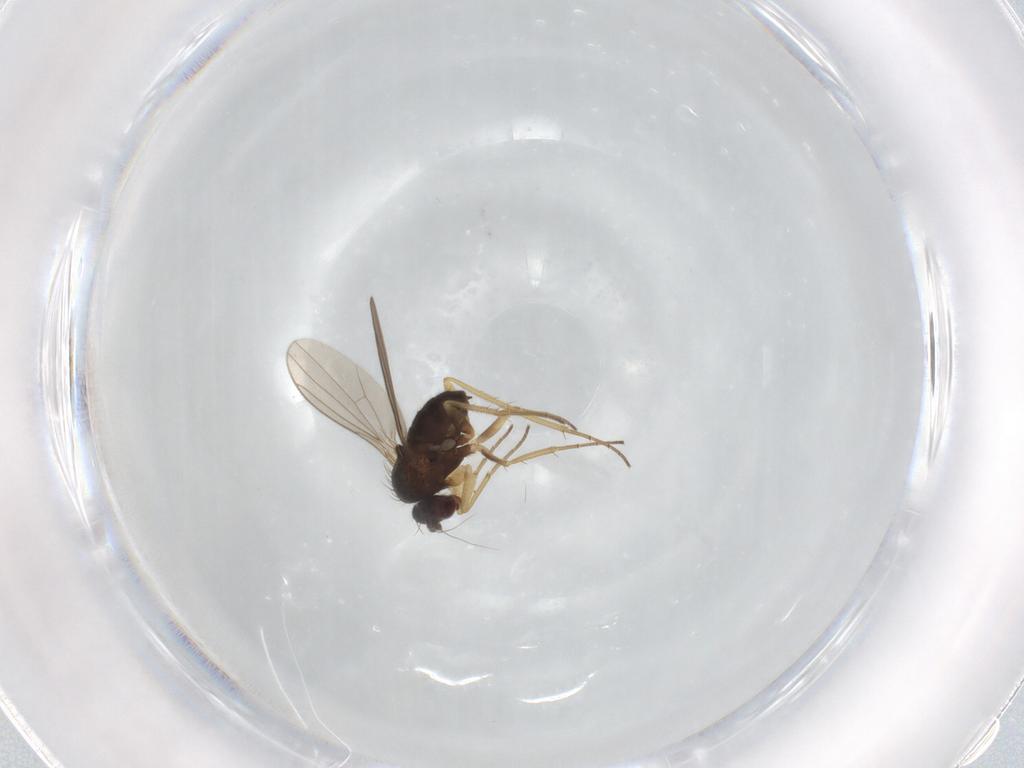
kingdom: Animalia
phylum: Arthropoda
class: Insecta
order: Diptera
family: Dolichopodidae
